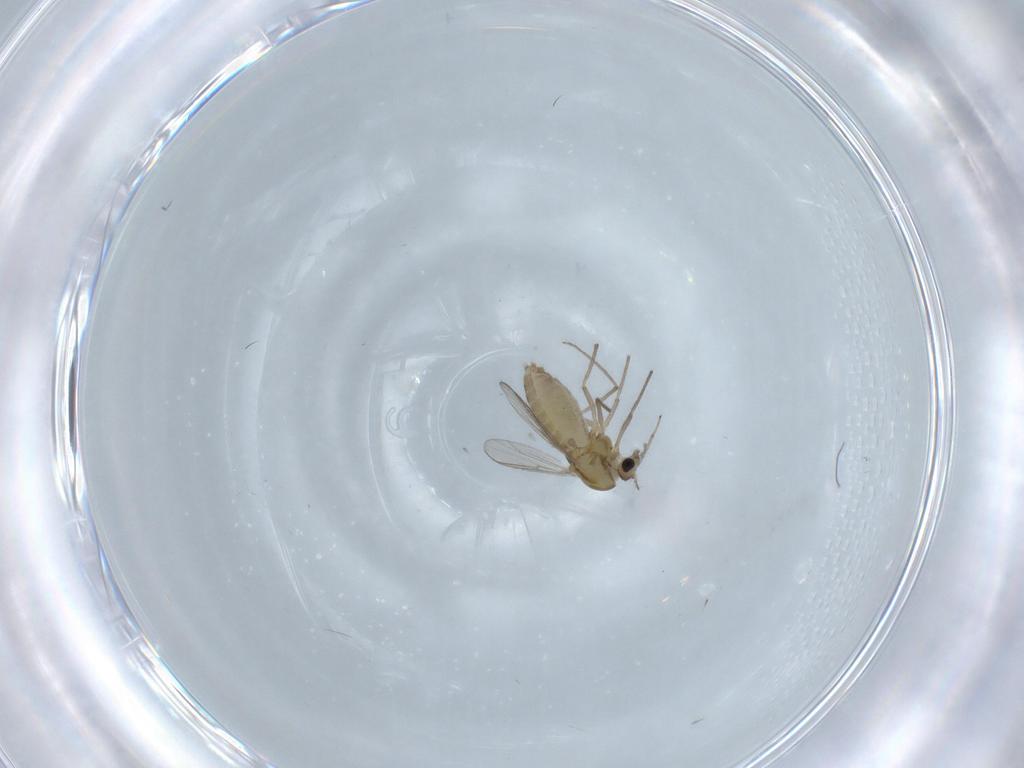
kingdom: Animalia
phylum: Arthropoda
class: Insecta
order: Diptera
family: Chironomidae
